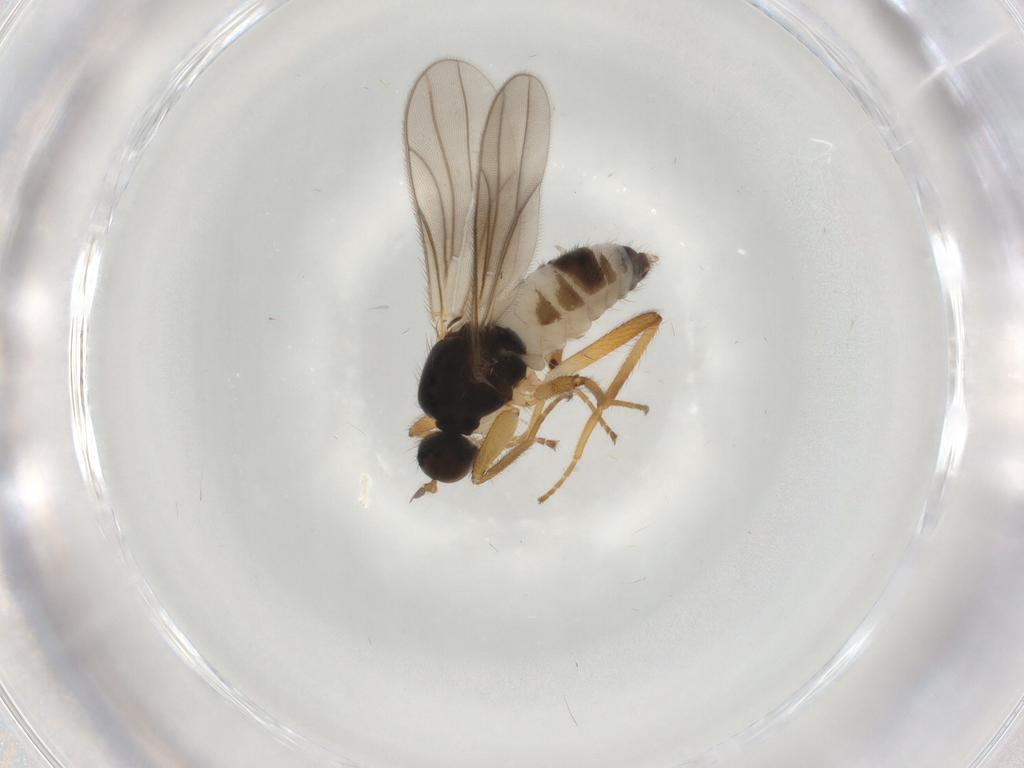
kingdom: Animalia
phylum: Arthropoda
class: Insecta
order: Diptera
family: Hybotidae
